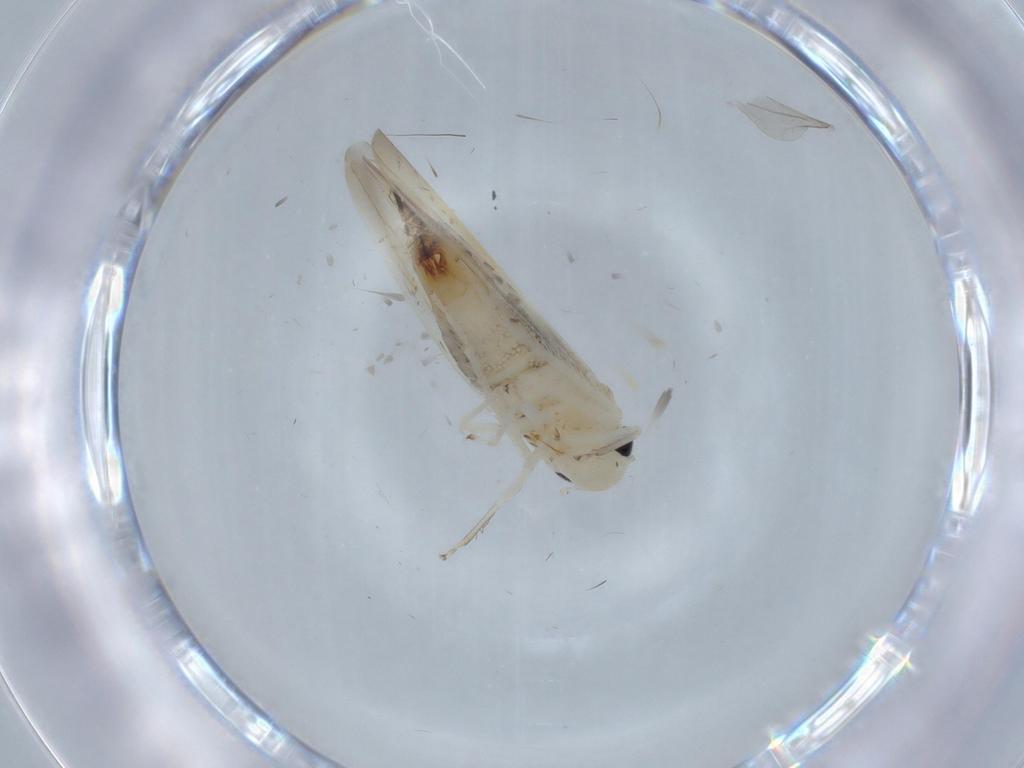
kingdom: Animalia
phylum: Arthropoda
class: Insecta
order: Hemiptera
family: Cicadellidae
